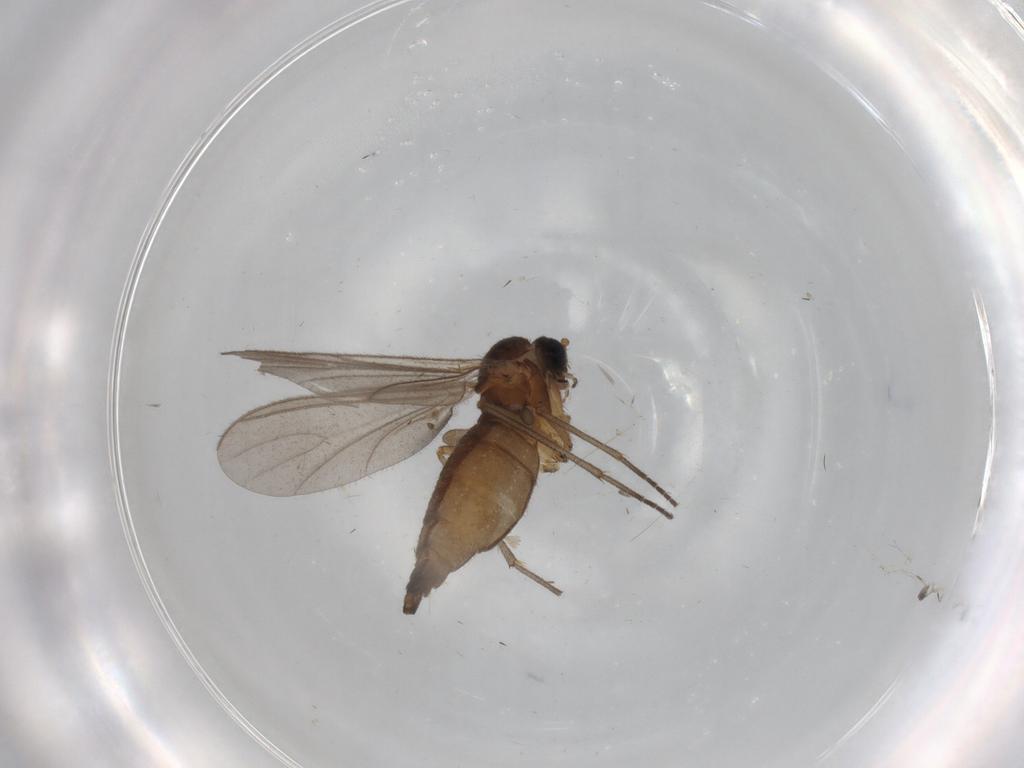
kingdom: Animalia
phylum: Arthropoda
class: Insecta
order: Diptera
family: Sciaridae
